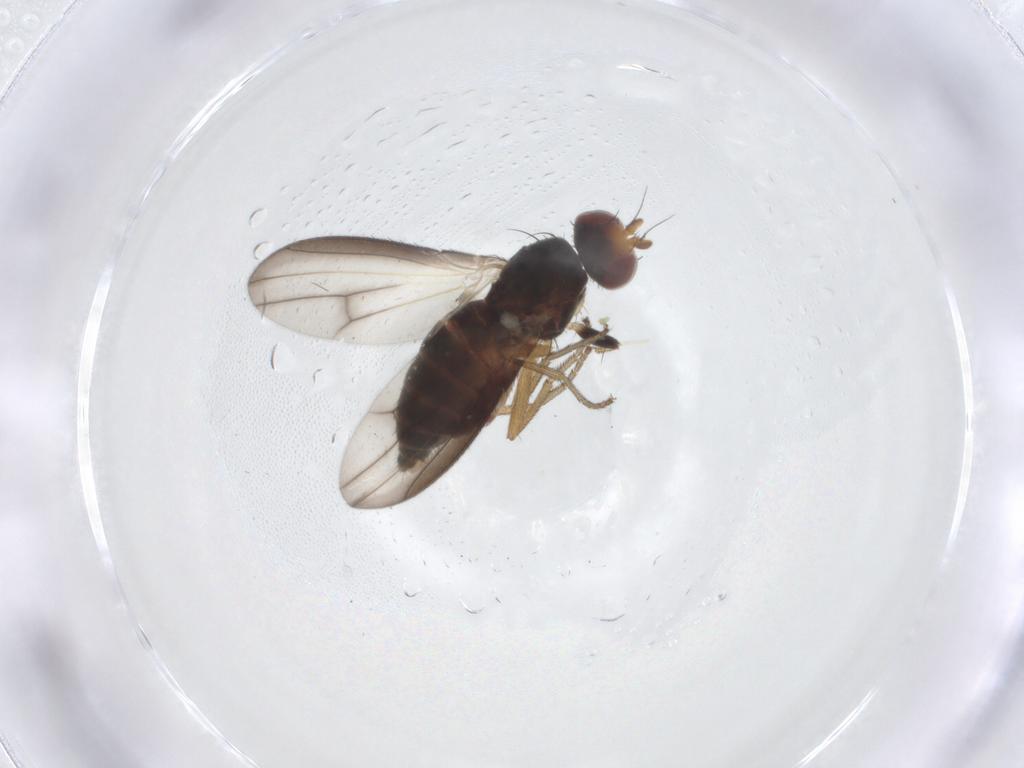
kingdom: Animalia
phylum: Arthropoda
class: Insecta
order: Diptera
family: Heleomyzidae
